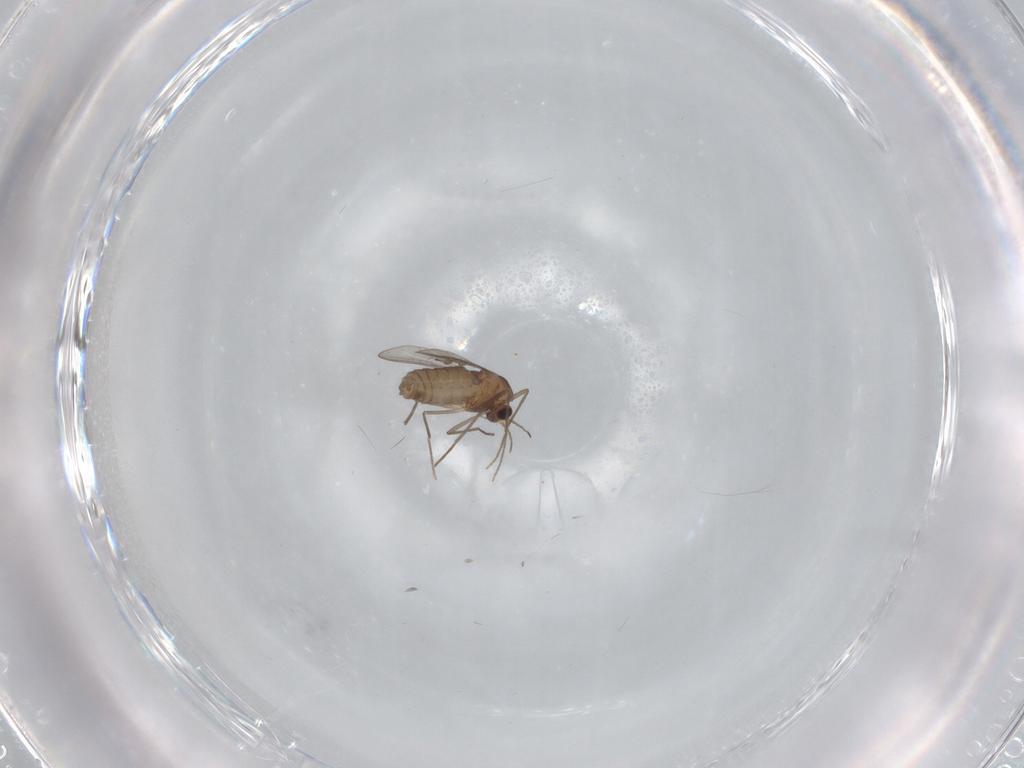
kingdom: Animalia
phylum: Arthropoda
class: Insecta
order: Diptera
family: Chironomidae
